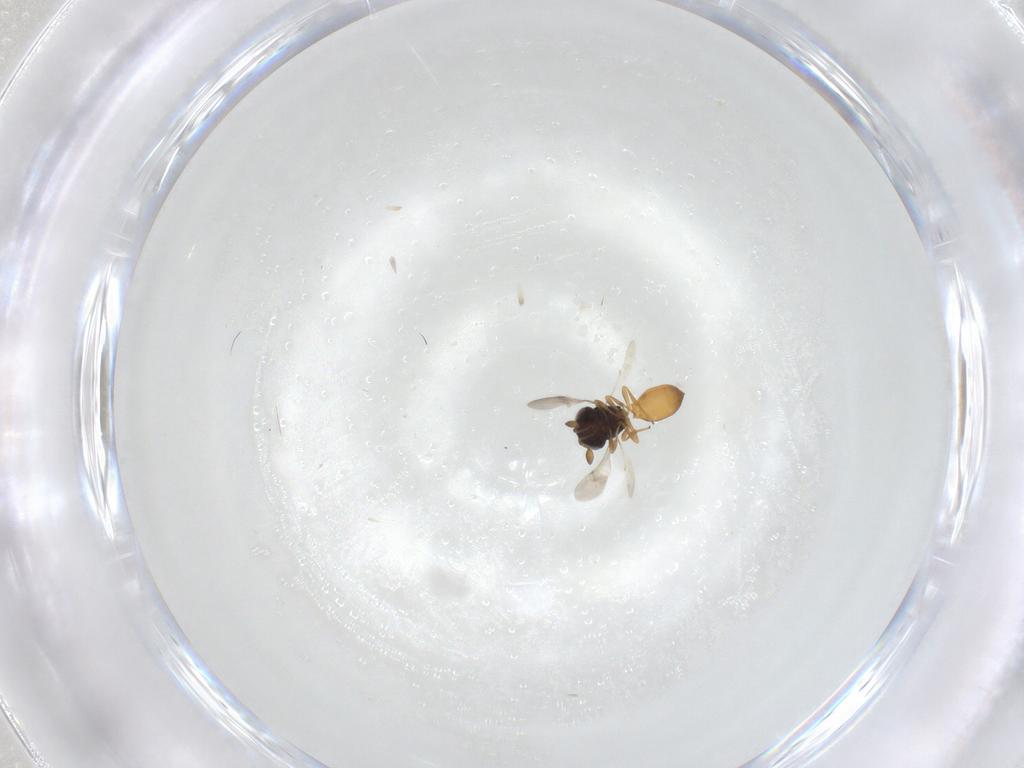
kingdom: Animalia
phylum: Arthropoda
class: Insecta
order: Hymenoptera
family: Scelionidae
